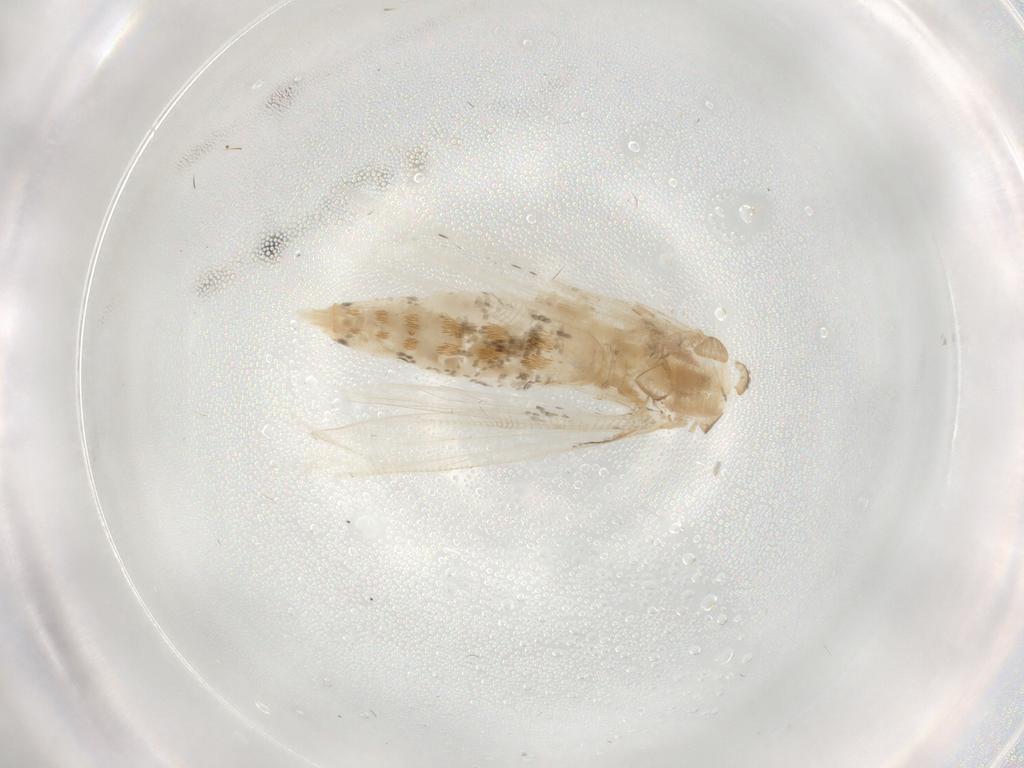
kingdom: Animalia
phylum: Arthropoda
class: Insecta
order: Lepidoptera
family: Momphidae
